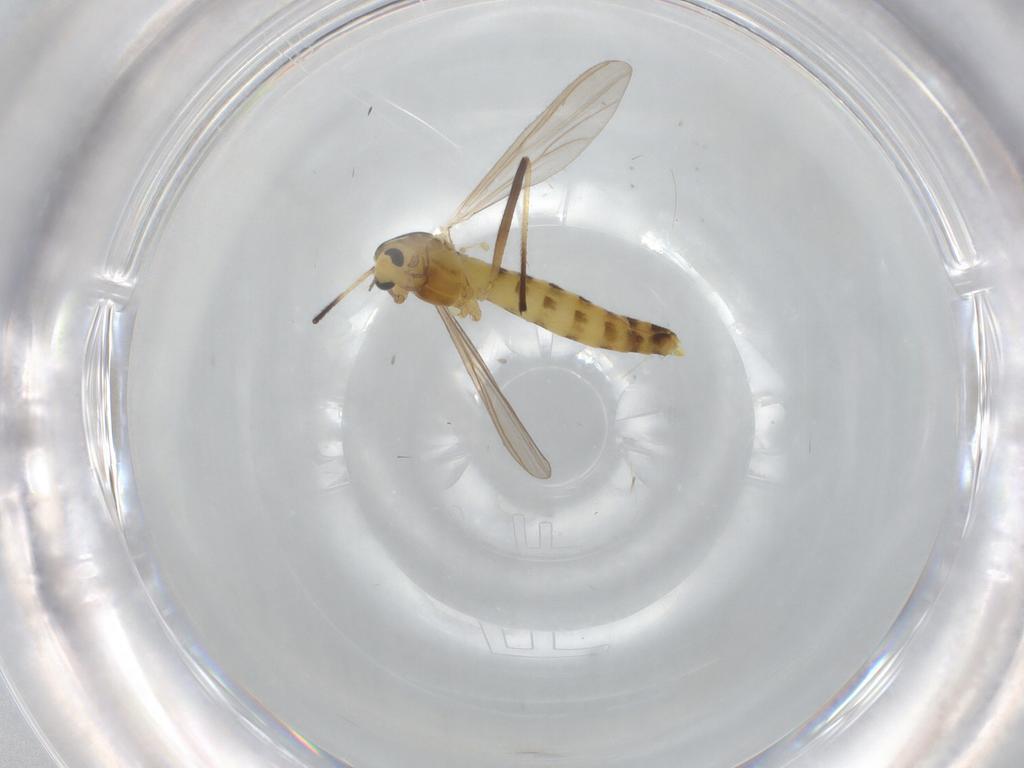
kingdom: Animalia
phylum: Arthropoda
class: Insecta
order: Diptera
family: Chironomidae
